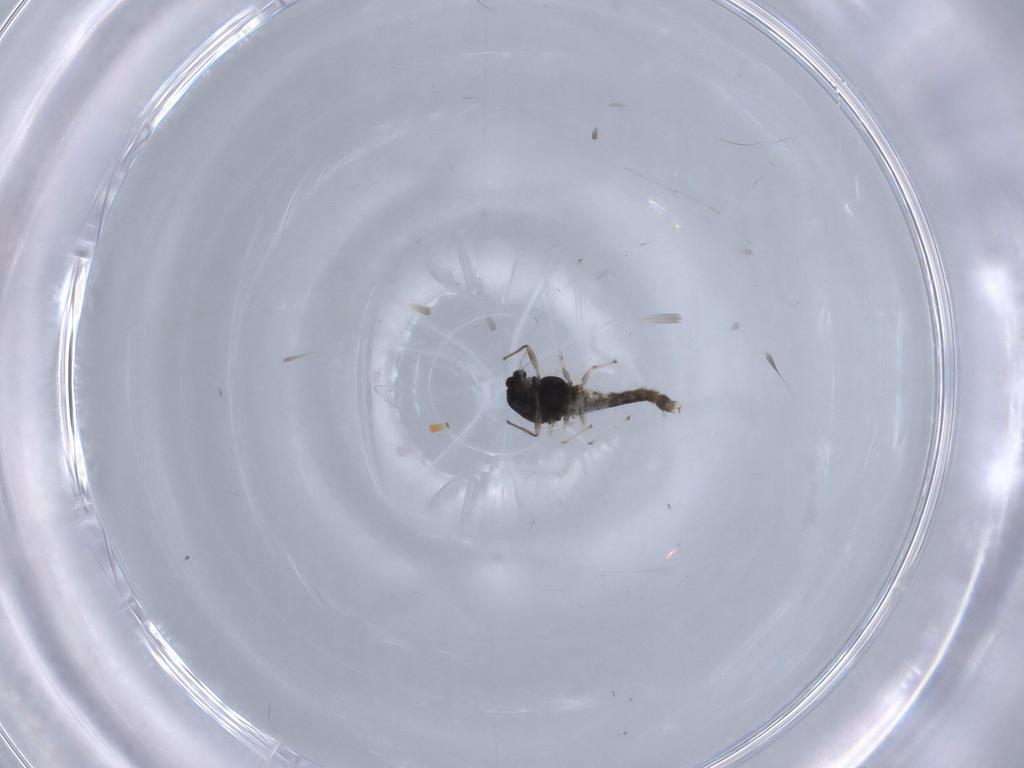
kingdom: Animalia
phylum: Arthropoda
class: Insecta
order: Diptera
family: Chironomidae
